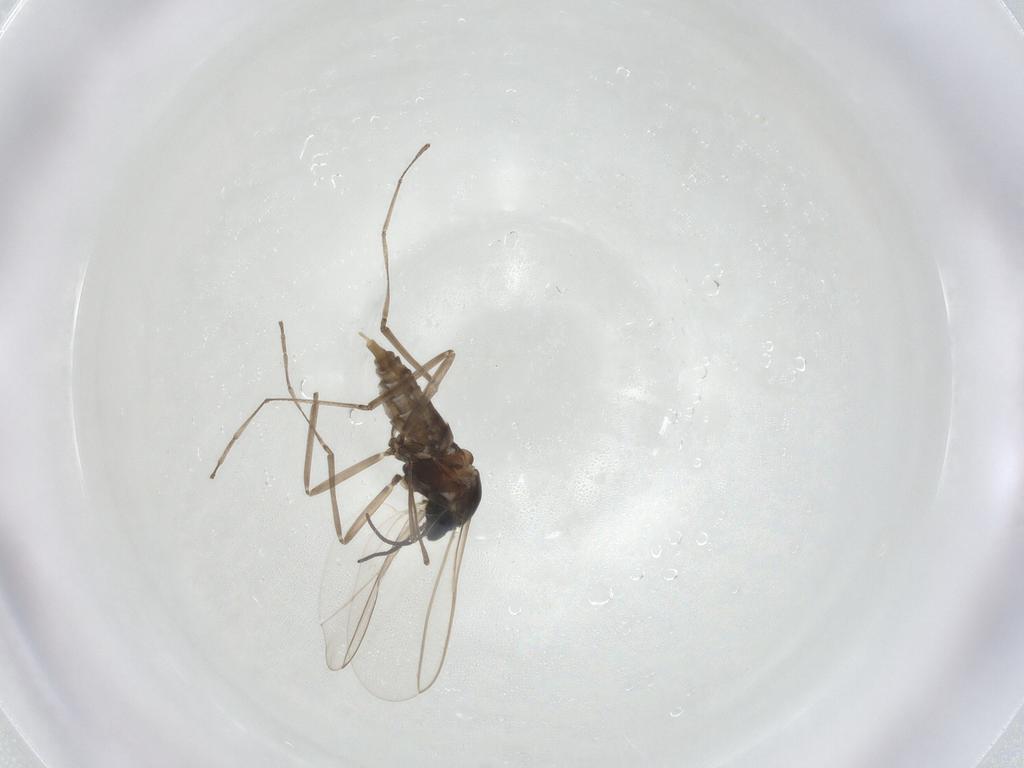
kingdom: Animalia
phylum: Arthropoda
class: Insecta
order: Diptera
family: Cecidomyiidae
